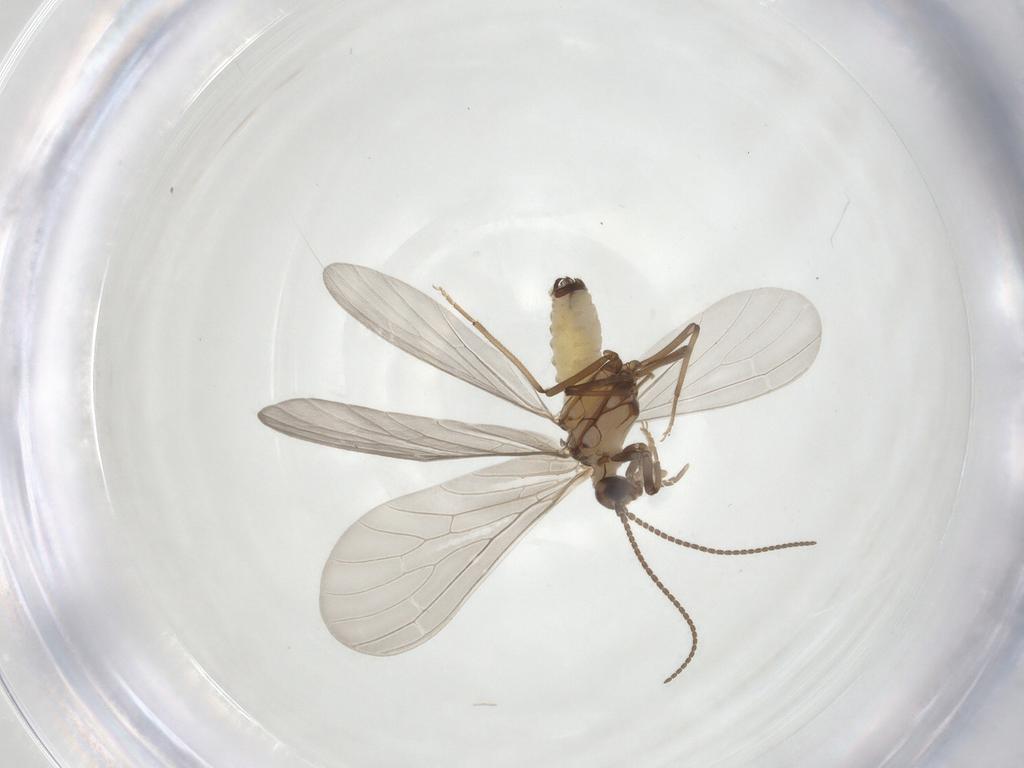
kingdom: Animalia
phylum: Arthropoda
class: Insecta
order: Neuroptera
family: Coniopterygidae
